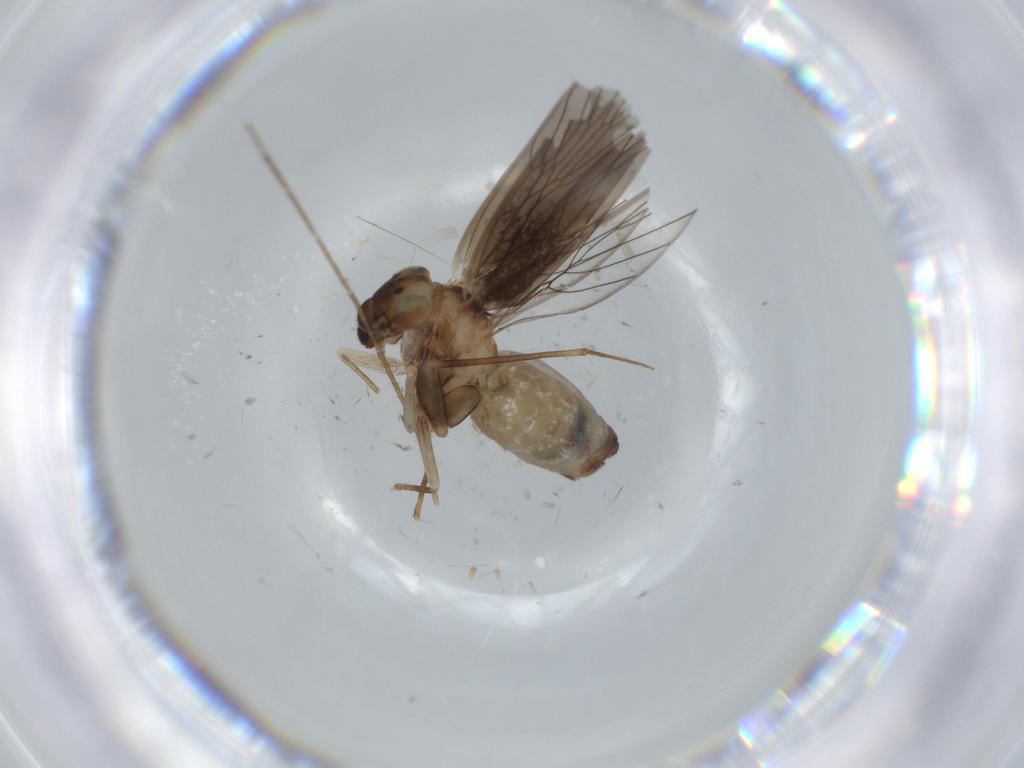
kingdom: Animalia
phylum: Arthropoda
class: Insecta
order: Psocodea
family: Lepidopsocidae
